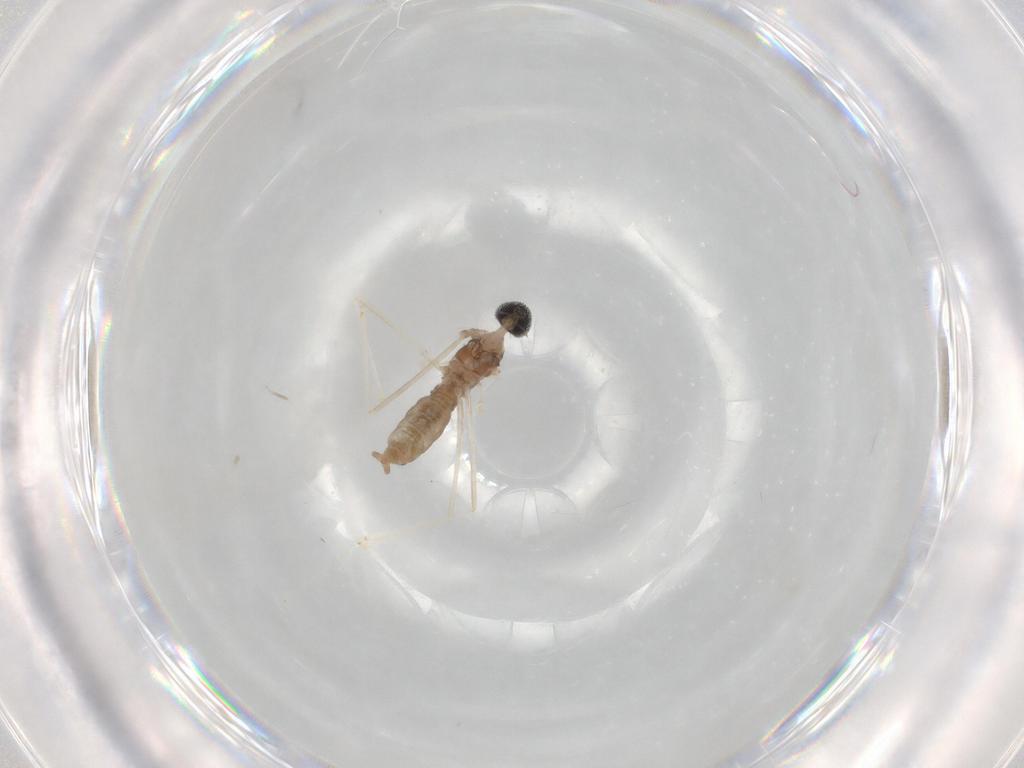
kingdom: Animalia
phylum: Arthropoda
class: Insecta
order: Diptera
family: Cecidomyiidae
